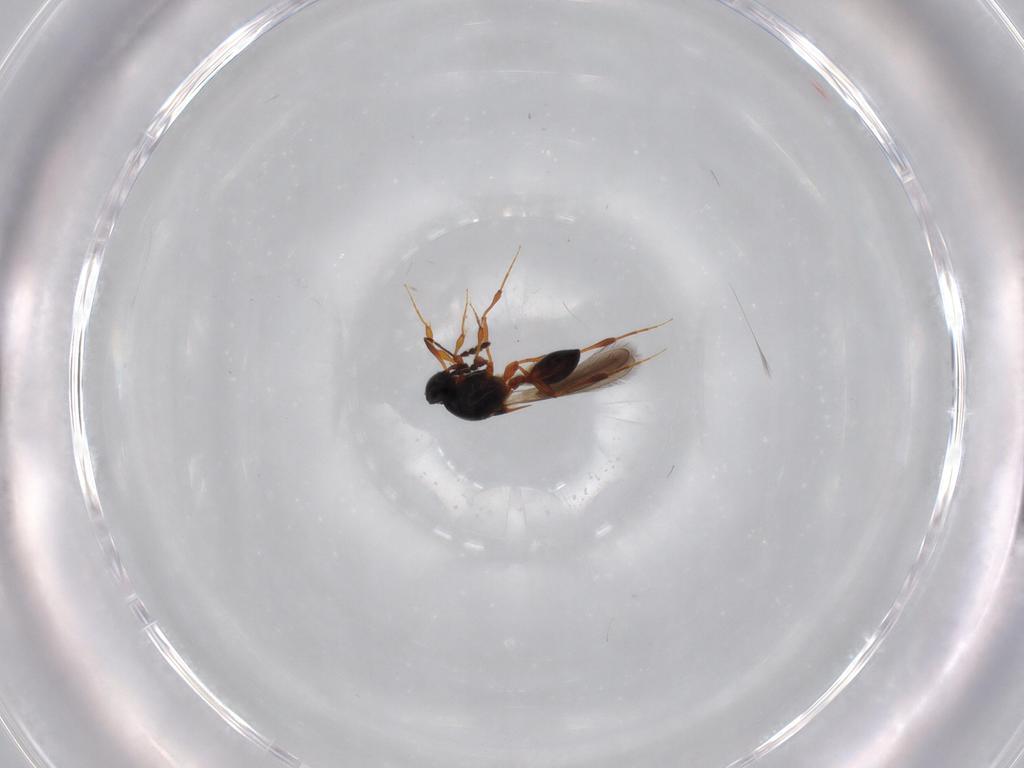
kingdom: Animalia
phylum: Arthropoda
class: Insecta
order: Hymenoptera
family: Platygastridae
